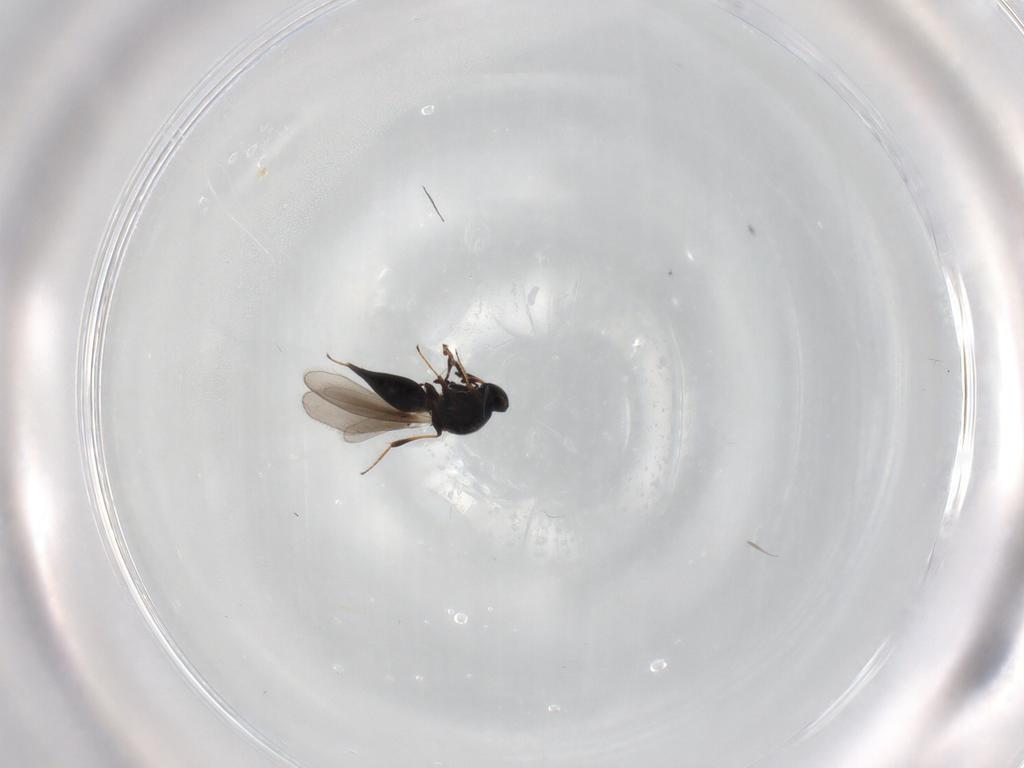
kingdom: Animalia
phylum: Arthropoda
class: Insecta
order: Hymenoptera
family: Platygastridae
